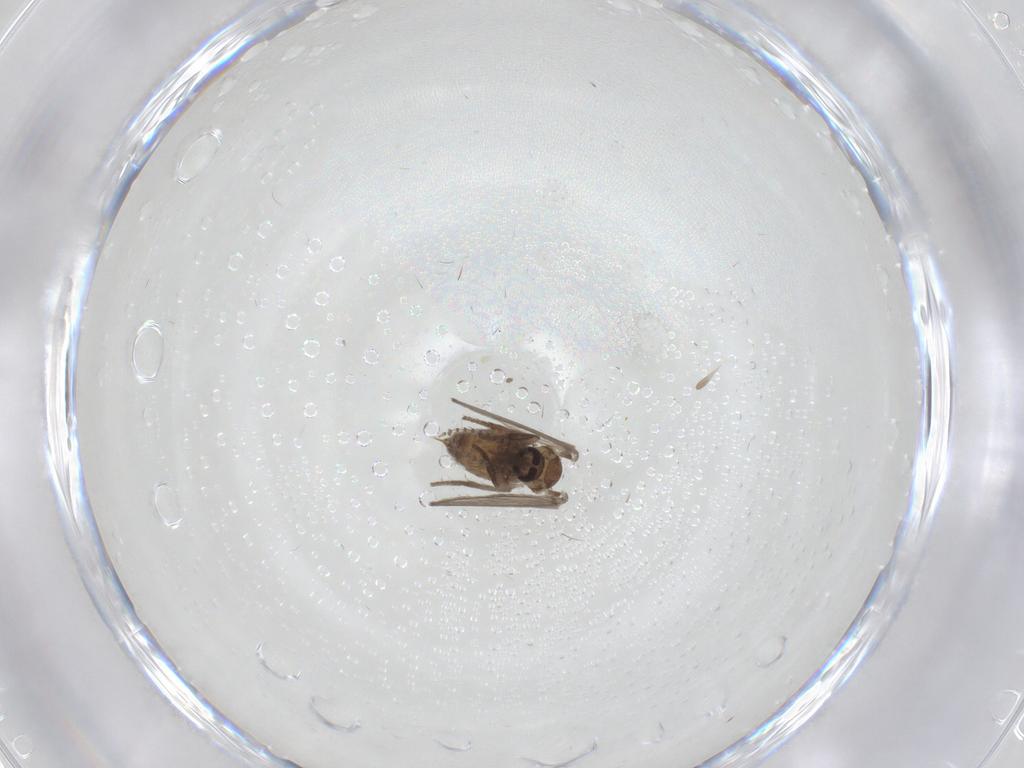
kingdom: Animalia
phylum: Arthropoda
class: Insecta
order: Diptera
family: Psychodidae
